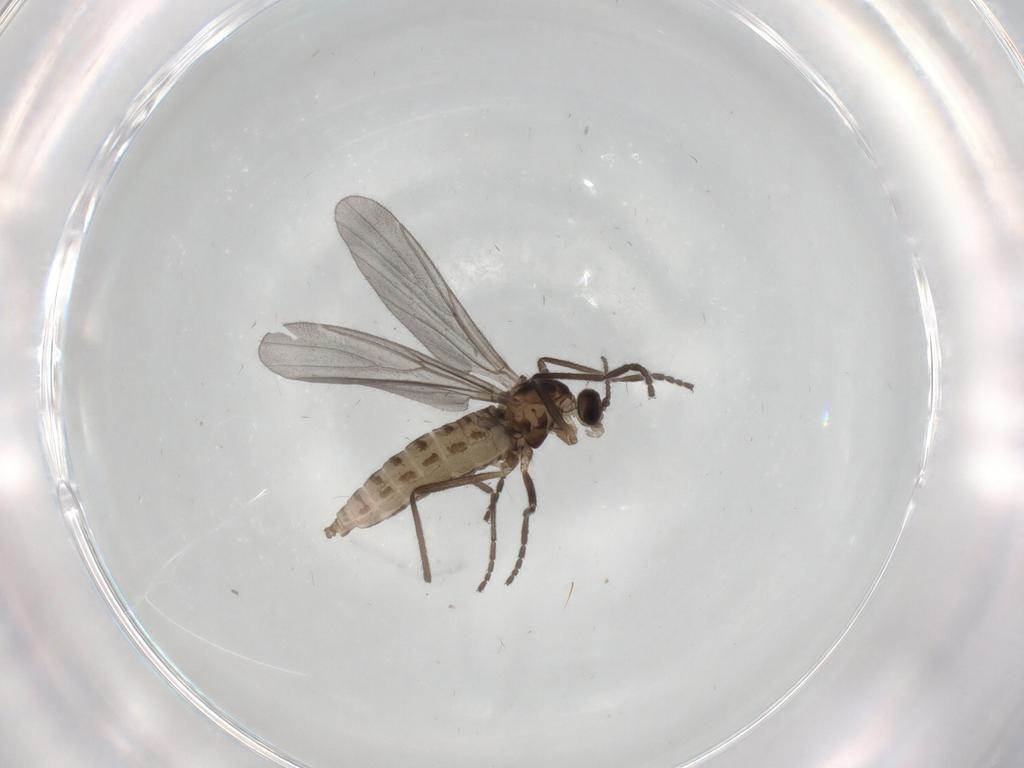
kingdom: Animalia
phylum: Arthropoda
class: Insecta
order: Diptera
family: Cecidomyiidae
